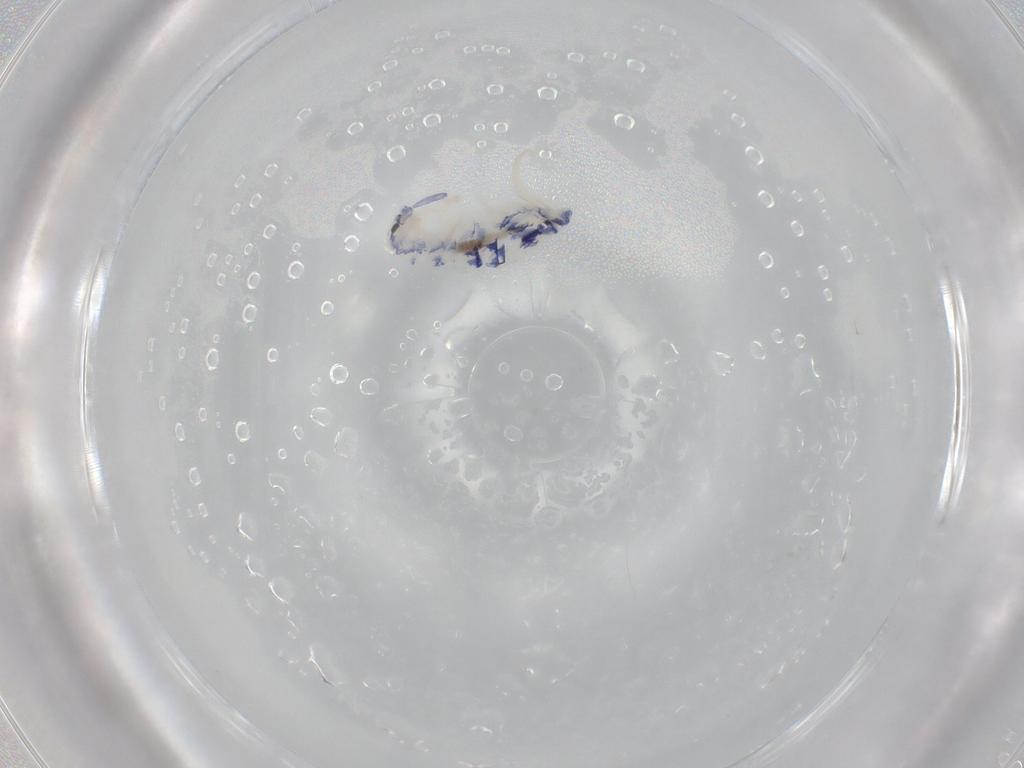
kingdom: Animalia
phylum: Arthropoda
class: Collembola
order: Entomobryomorpha
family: Entomobryidae
